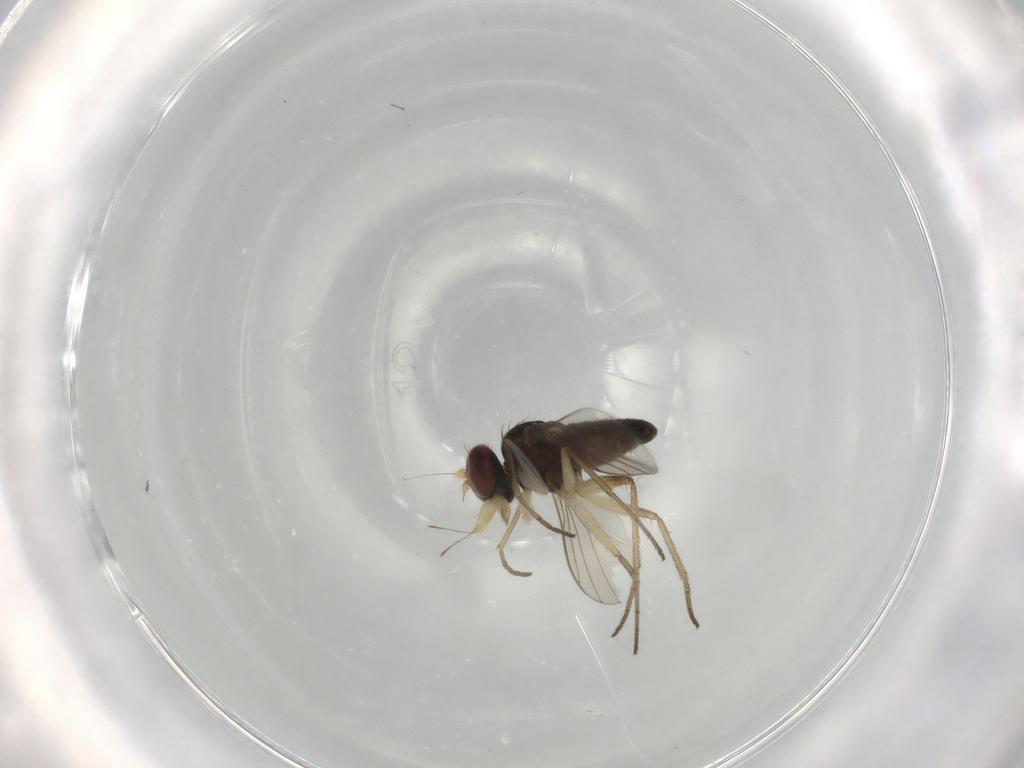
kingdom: Animalia
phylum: Arthropoda
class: Insecta
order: Diptera
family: Dolichopodidae
